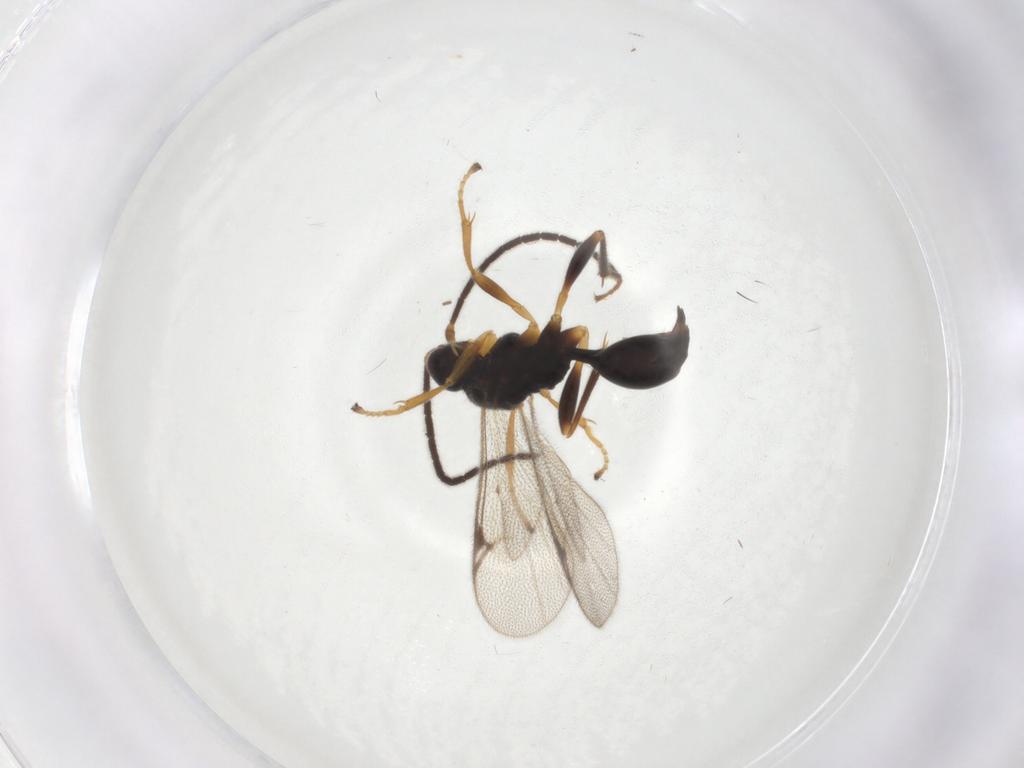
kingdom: Animalia
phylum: Arthropoda
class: Insecta
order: Hymenoptera
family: Proctotrupidae
